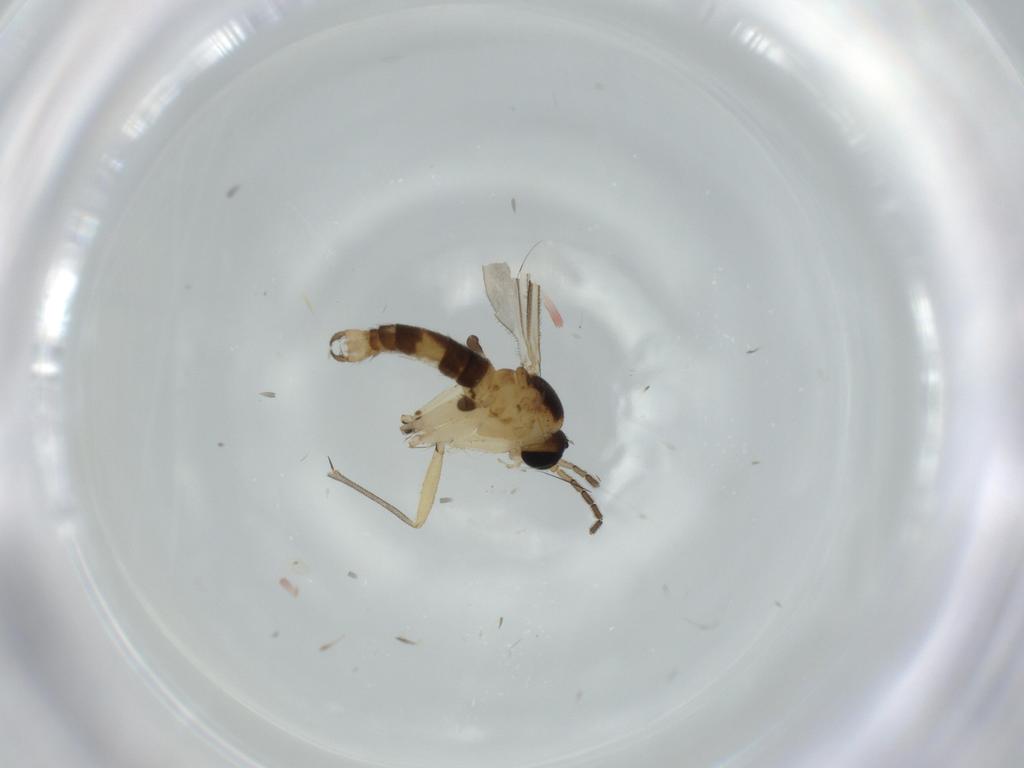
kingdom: Animalia
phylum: Arthropoda
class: Insecta
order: Diptera
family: Sciaridae
